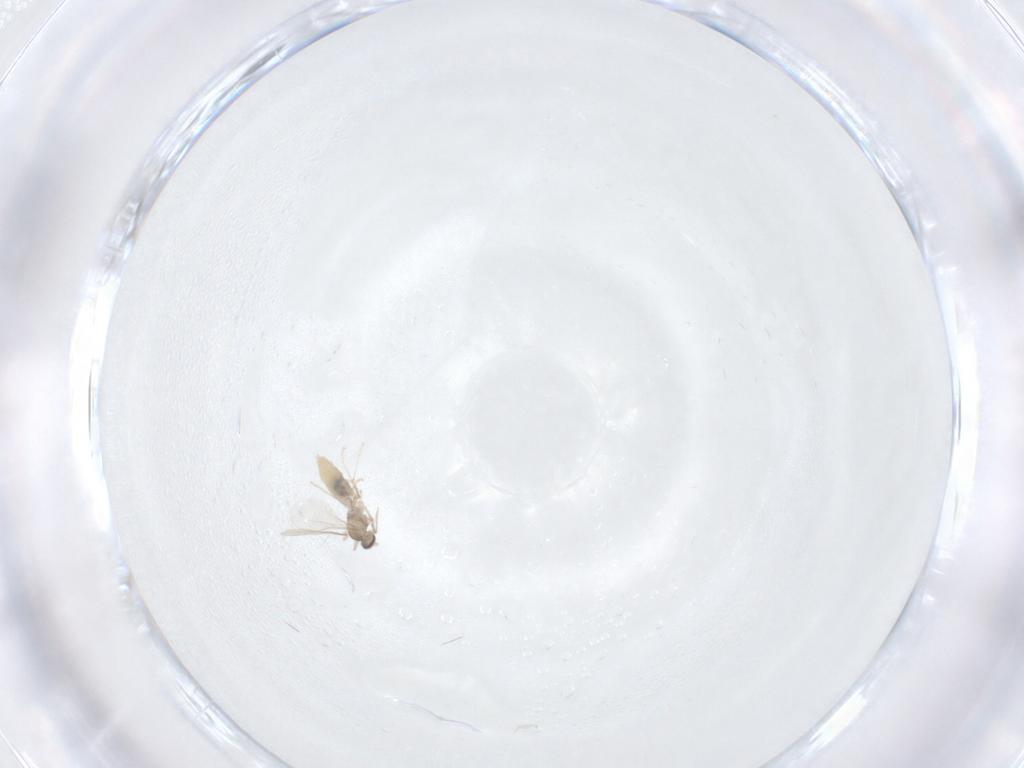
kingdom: Animalia
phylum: Arthropoda
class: Insecta
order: Diptera
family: Cecidomyiidae
